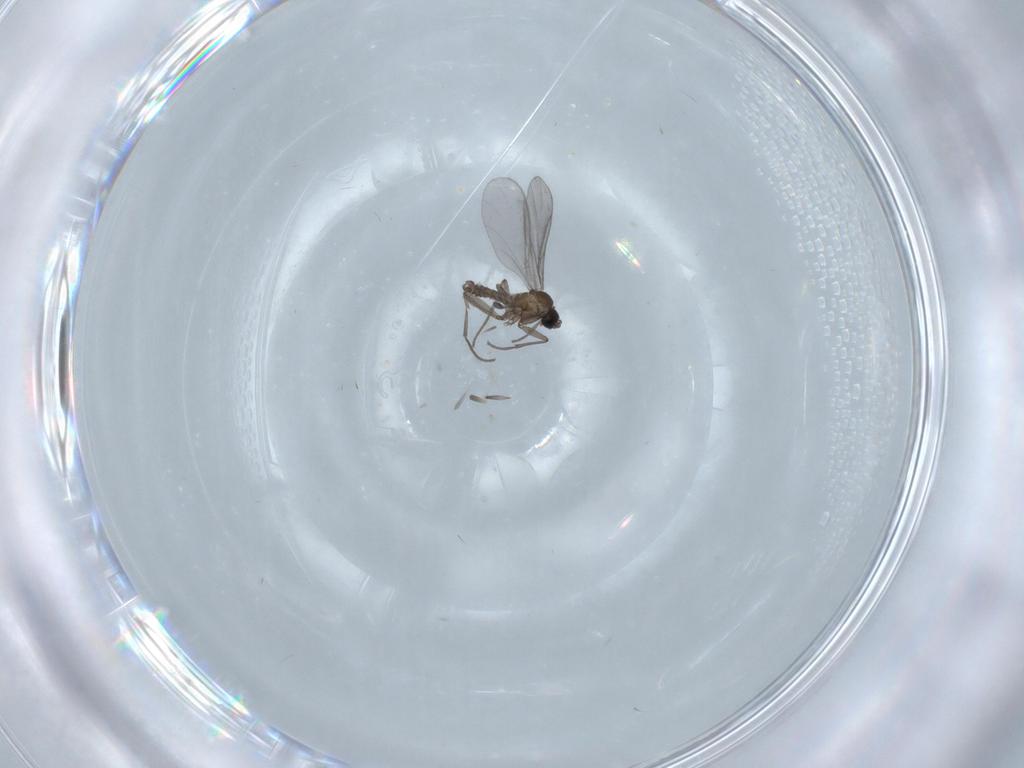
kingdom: Animalia
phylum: Arthropoda
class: Insecta
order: Diptera
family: Sciaridae
